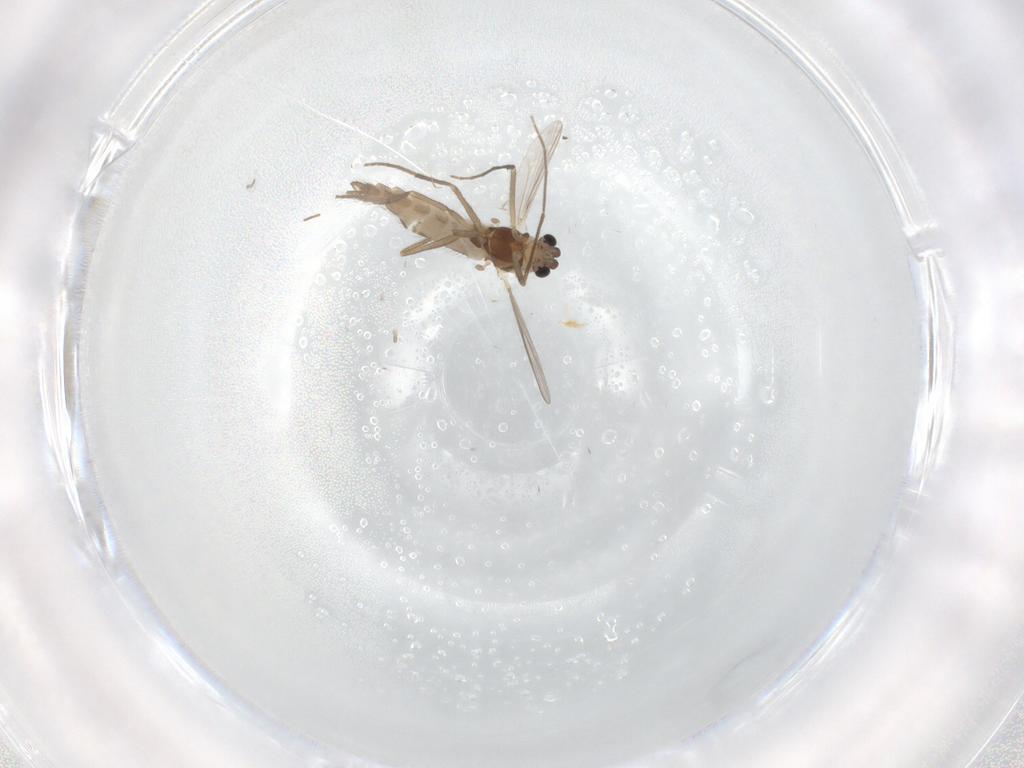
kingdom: Animalia
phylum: Arthropoda
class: Insecta
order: Diptera
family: Chironomidae
